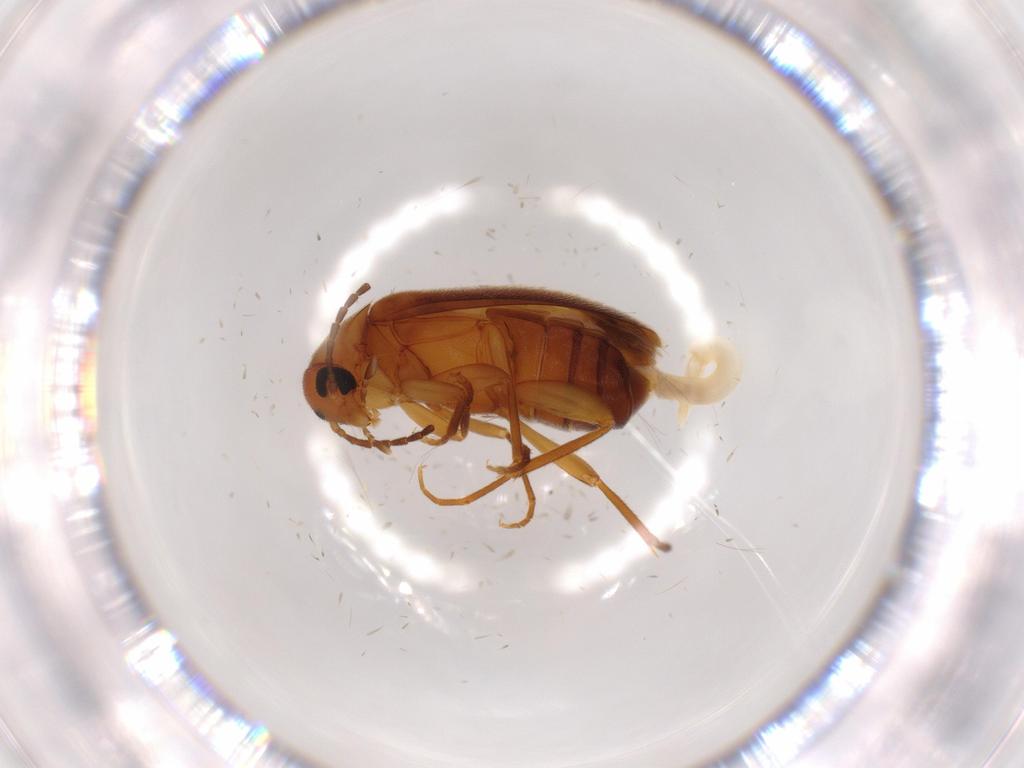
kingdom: Animalia
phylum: Arthropoda
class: Insecta
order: Coleoptera
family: Scraptiidae
